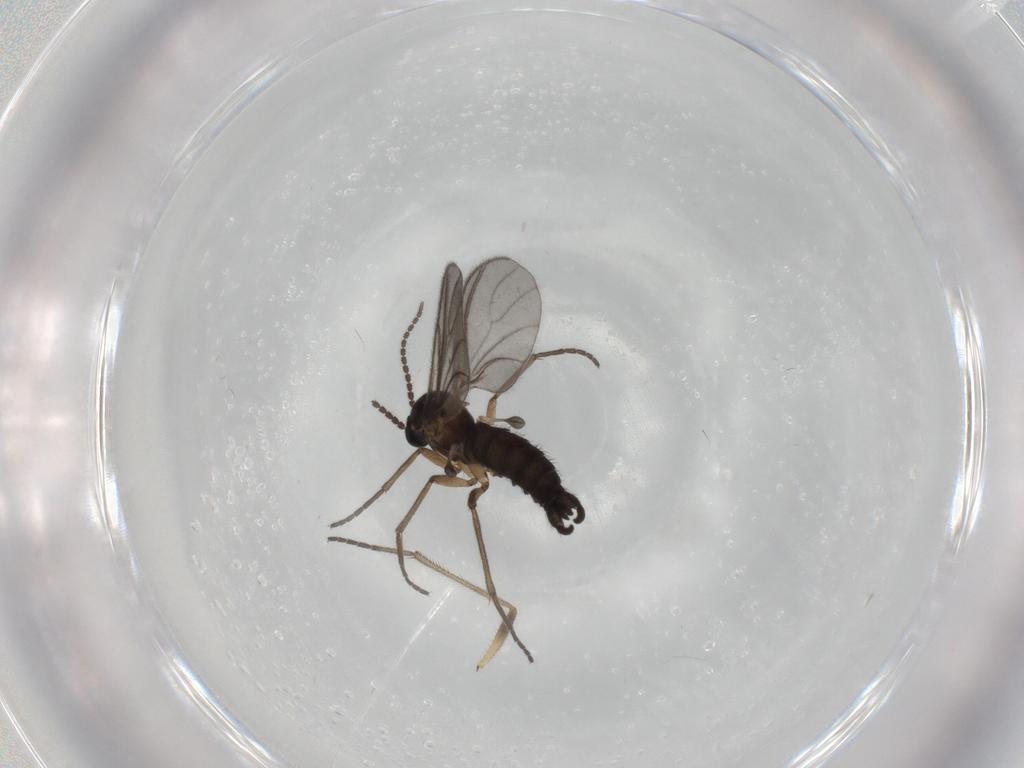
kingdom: Animalia
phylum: Arthropoda
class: Insecta
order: Diptera
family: Sciaridae
